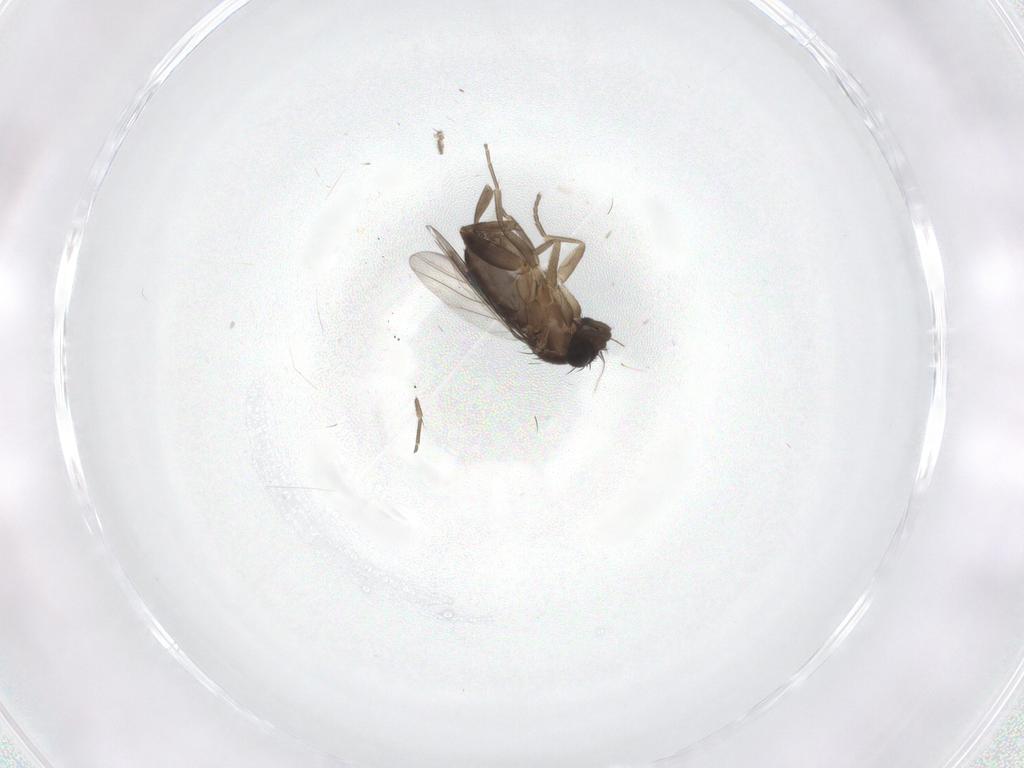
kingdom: Animalia
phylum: Arthropoda
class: Insecta
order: Diptera
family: Phoridae
